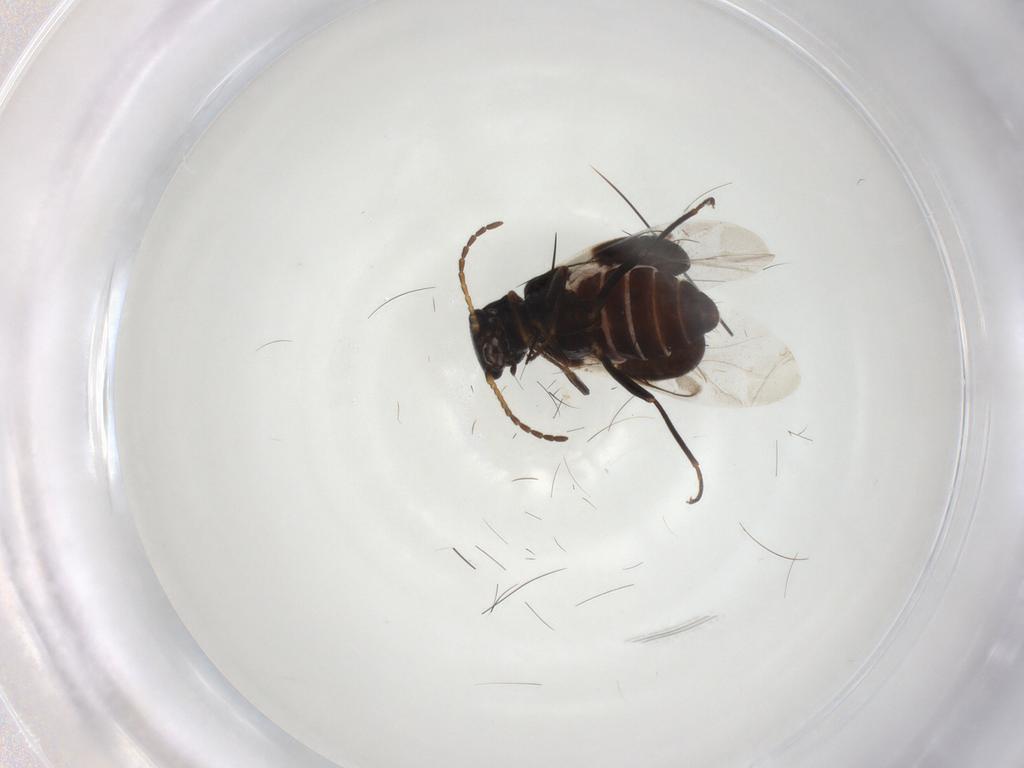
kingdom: Animalia
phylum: Arthropoda
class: Insecta
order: Coleoptera
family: Melyridae
